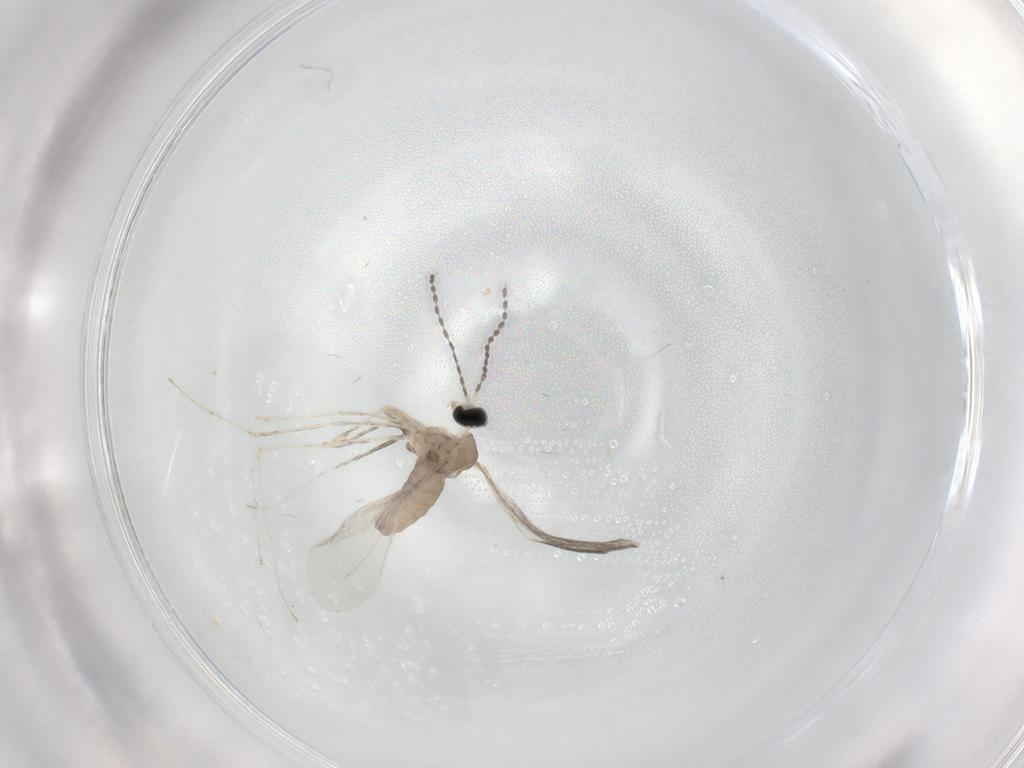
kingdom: Animalia
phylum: Arthropoda
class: Insecta
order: Diptera
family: Cecidomyiidae
